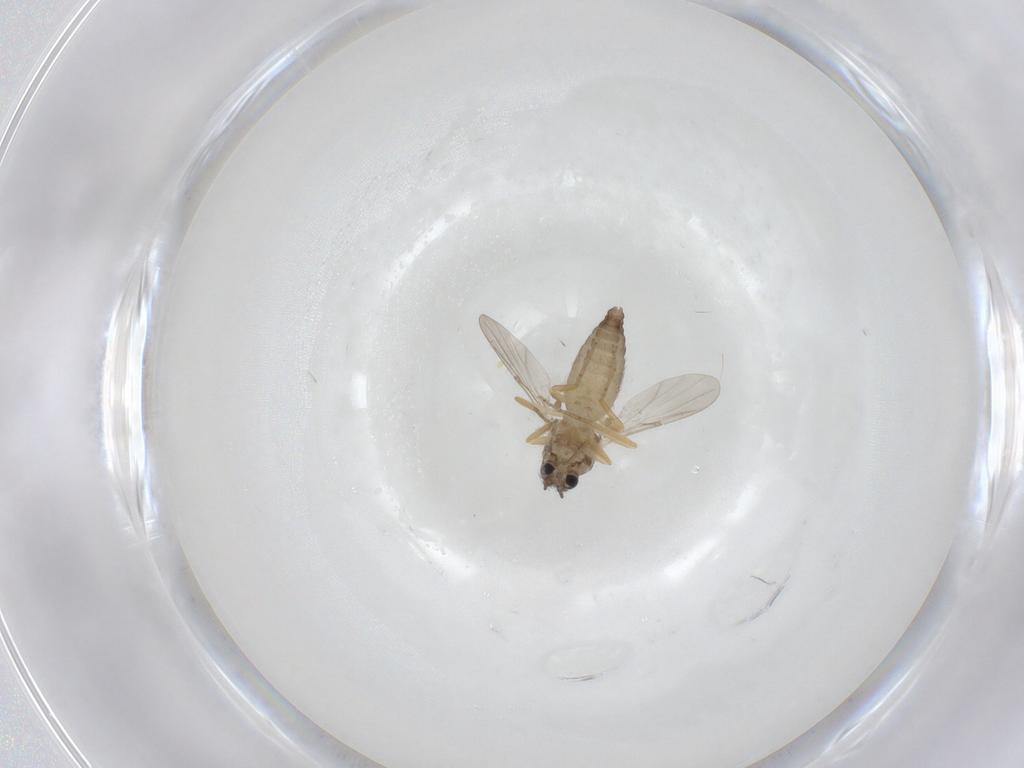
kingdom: Animalia
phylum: Arthropoda
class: Insecta
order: Diptera
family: Ceratopogonidae
